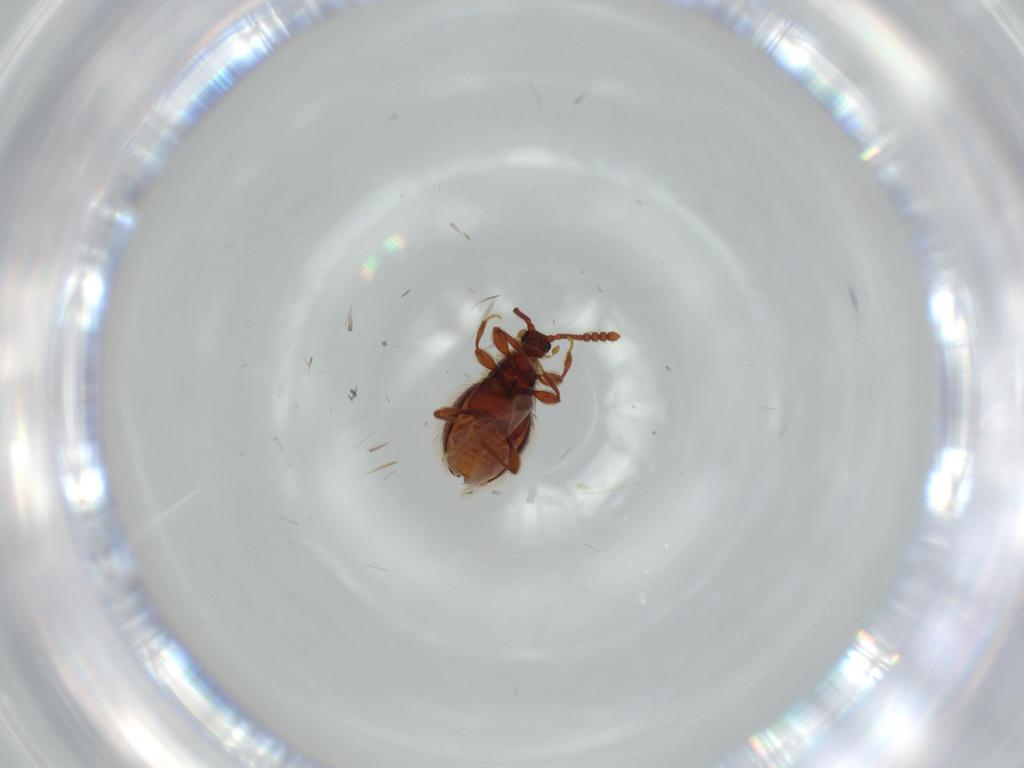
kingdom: Animalia
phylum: Arthropoda
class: Insecta
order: Coleoptera
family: Staphylinidae
